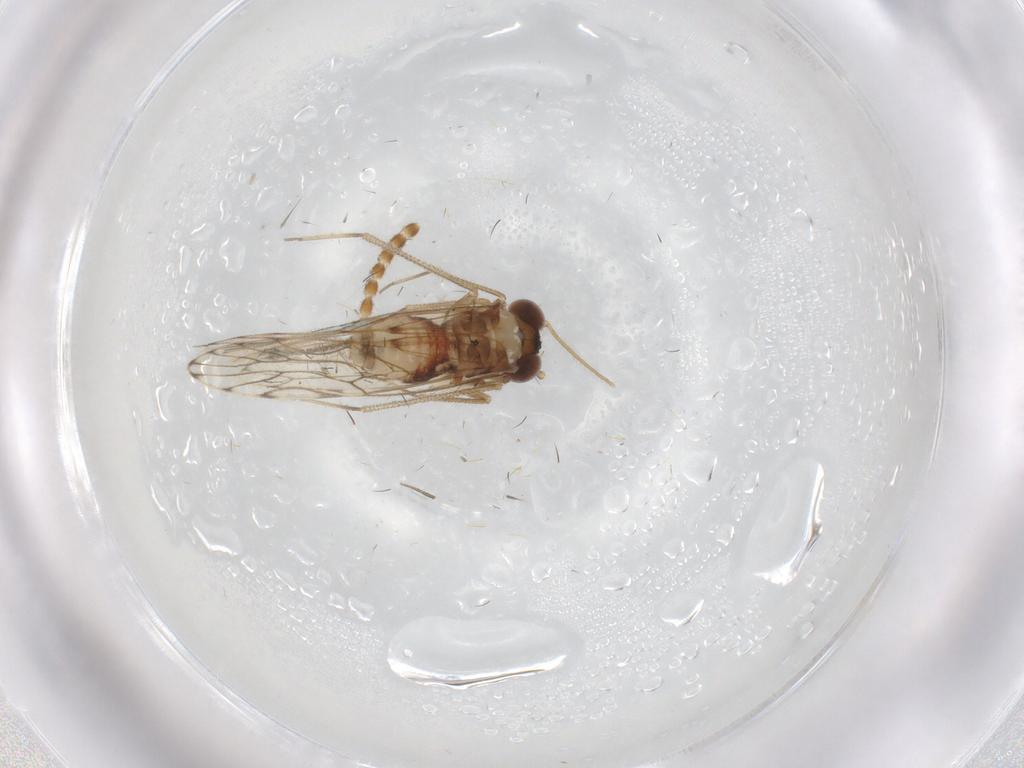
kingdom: Animalia
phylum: Arthropoda
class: Insecta
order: Psocodea
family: Epipsocidae
